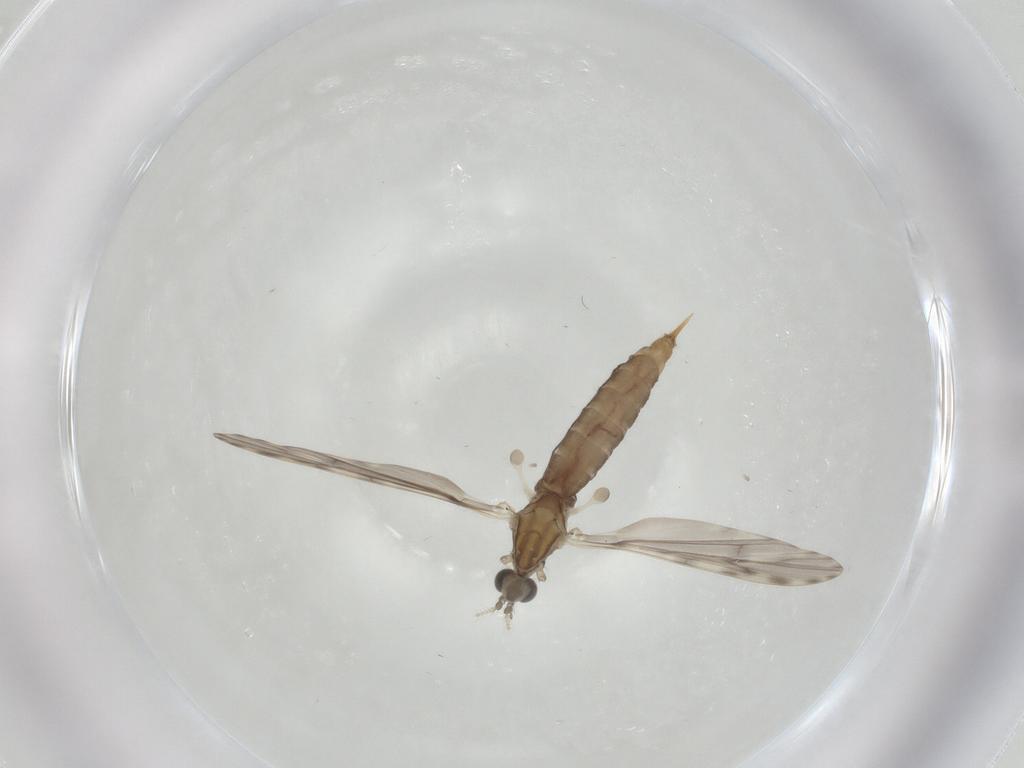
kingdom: Animalia
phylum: Arthropoda
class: Insecta
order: Diptera
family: Limoniidae
